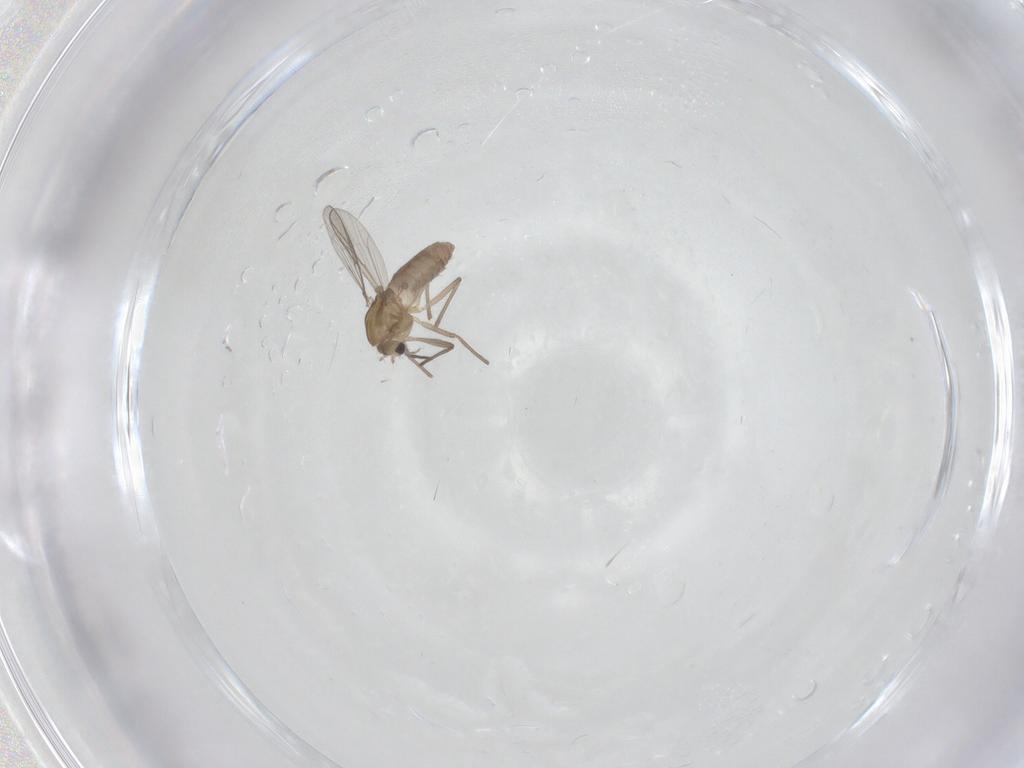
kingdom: Animalia
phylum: Arthropoda
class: Insecta
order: Diptera
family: Chironomidae
